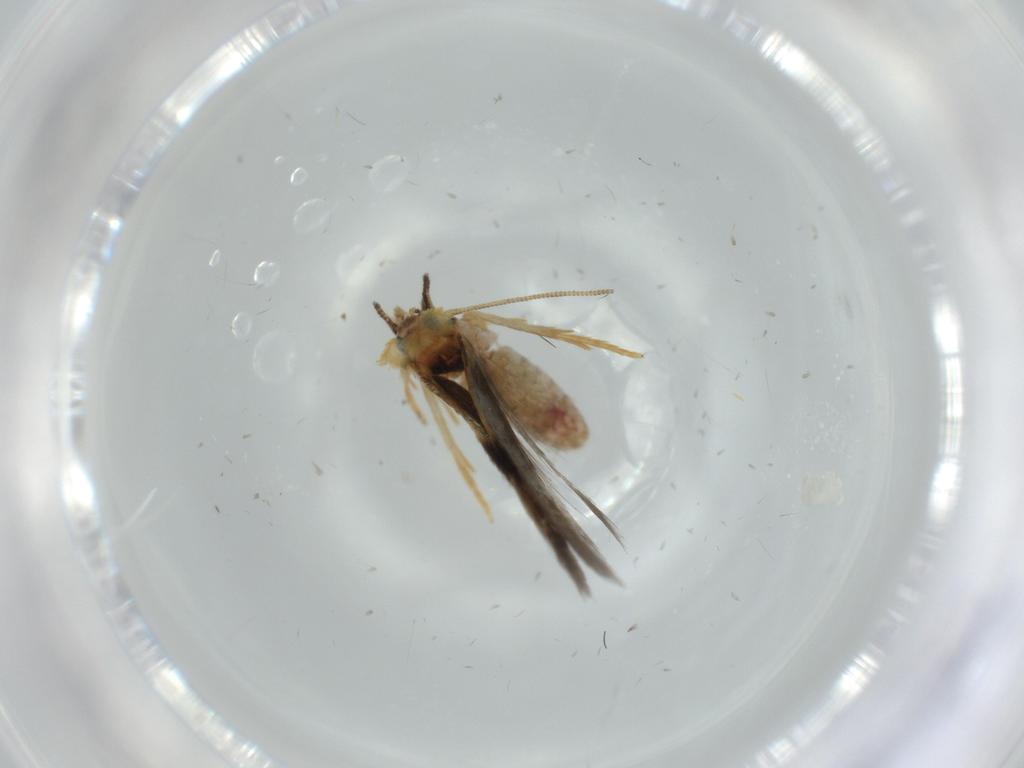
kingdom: Animalia
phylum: Arthropoda
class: Insecta
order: Lepidoptera
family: Nepticulidae
